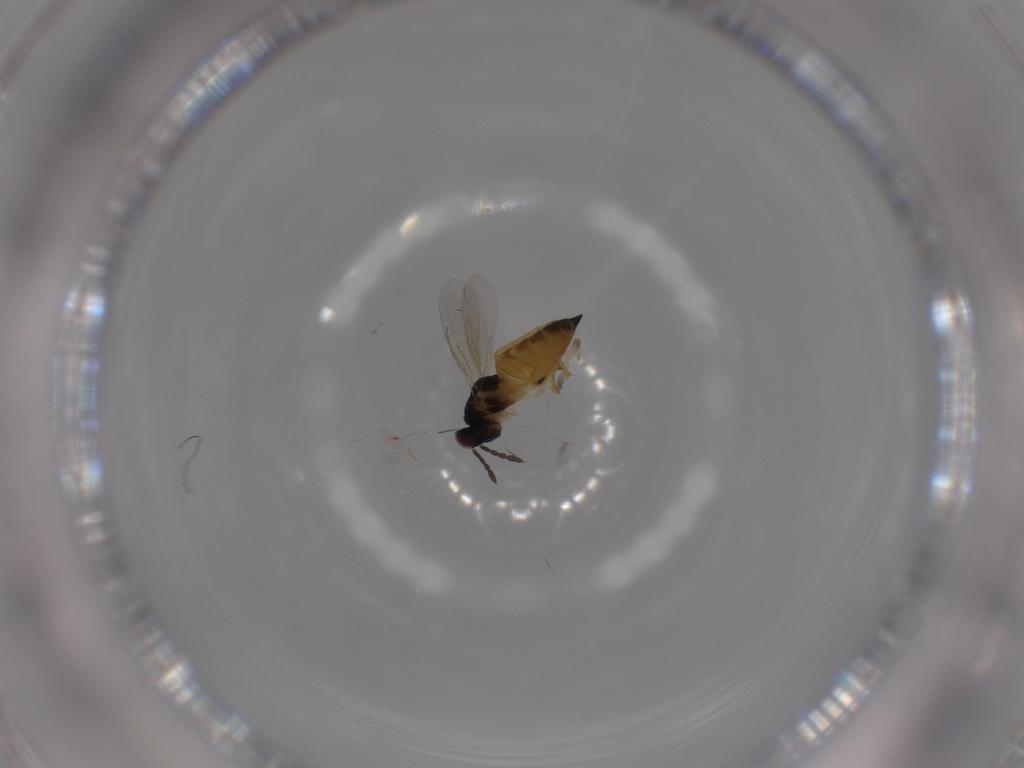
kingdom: Animalia
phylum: Arthropoda
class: Insecta
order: Hymenoptera
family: Eulophidae
